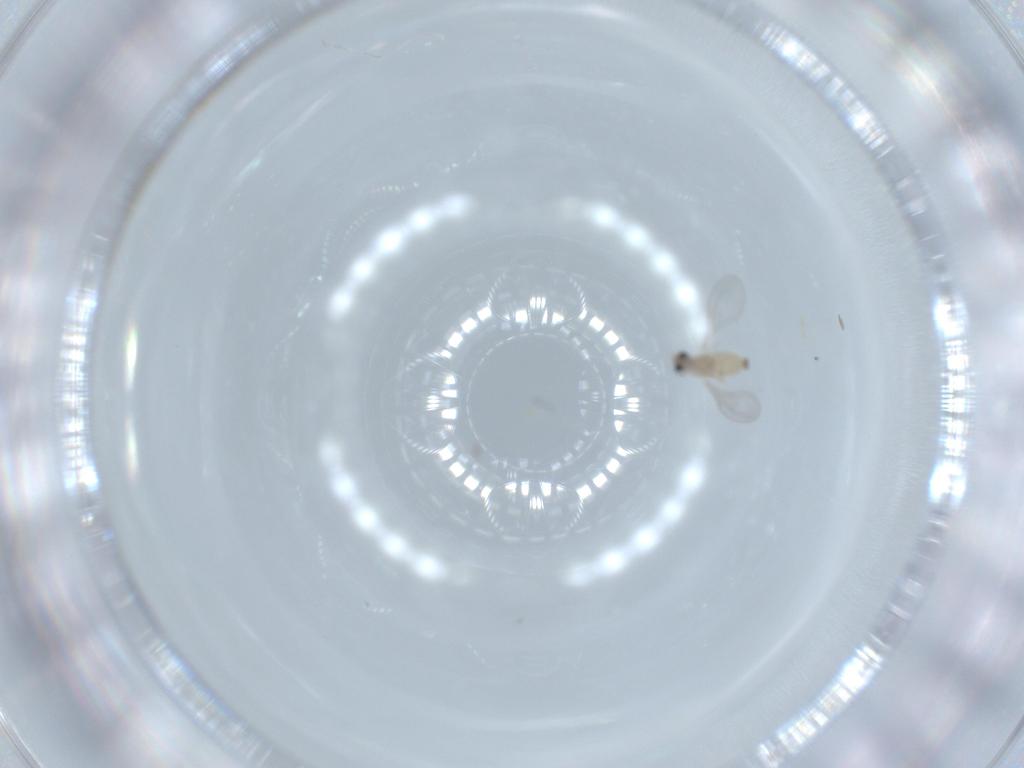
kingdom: Animalia
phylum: Arthropoda
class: Insecta
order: Diptera
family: Cecidomyiidae
